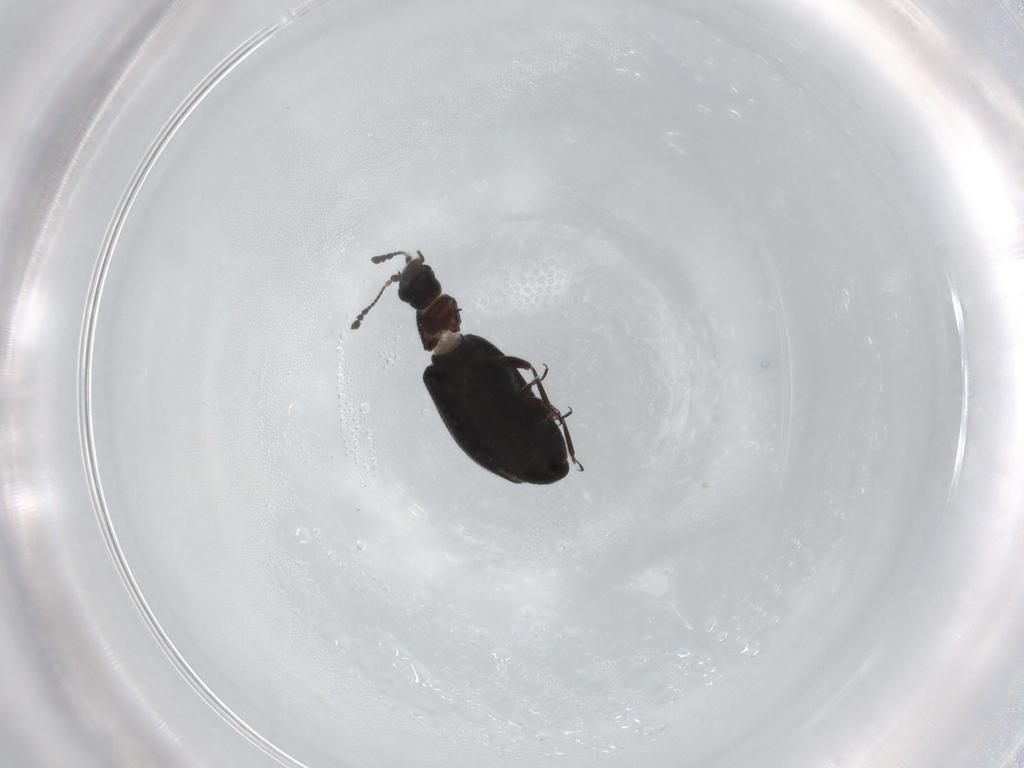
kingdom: Animalia
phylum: Arthropoda
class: Insecta
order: Coleoptera
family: Latridiidae
